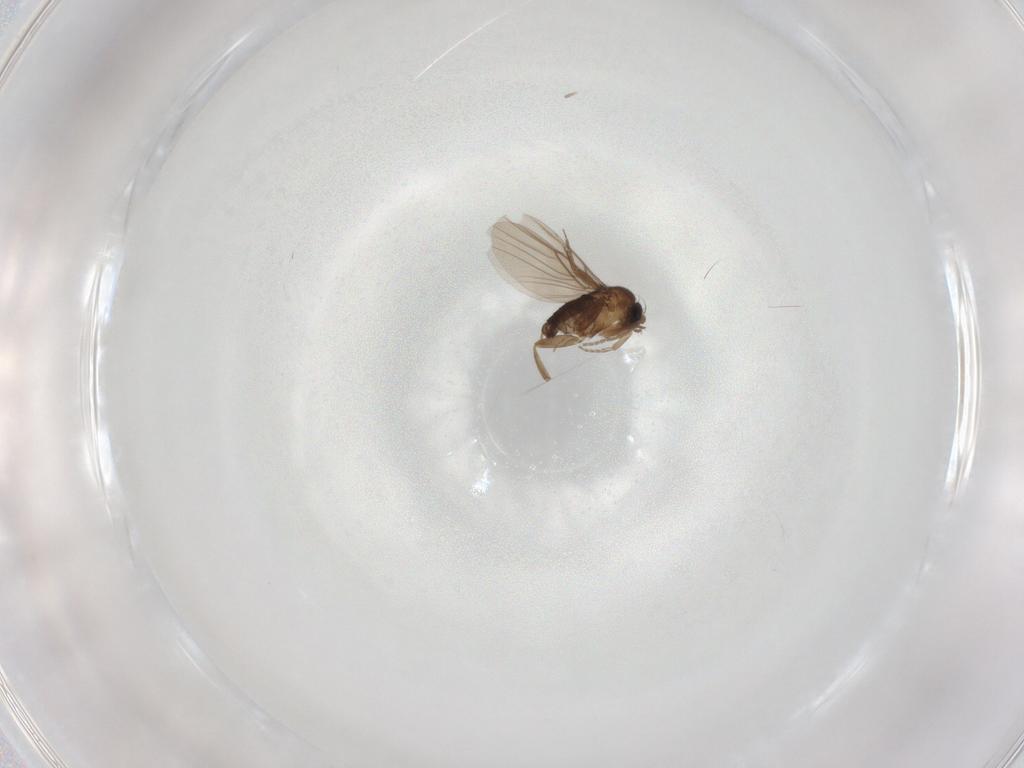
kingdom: Animalia
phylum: Arthropoda
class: Insecta
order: Diptera
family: Phoridae
